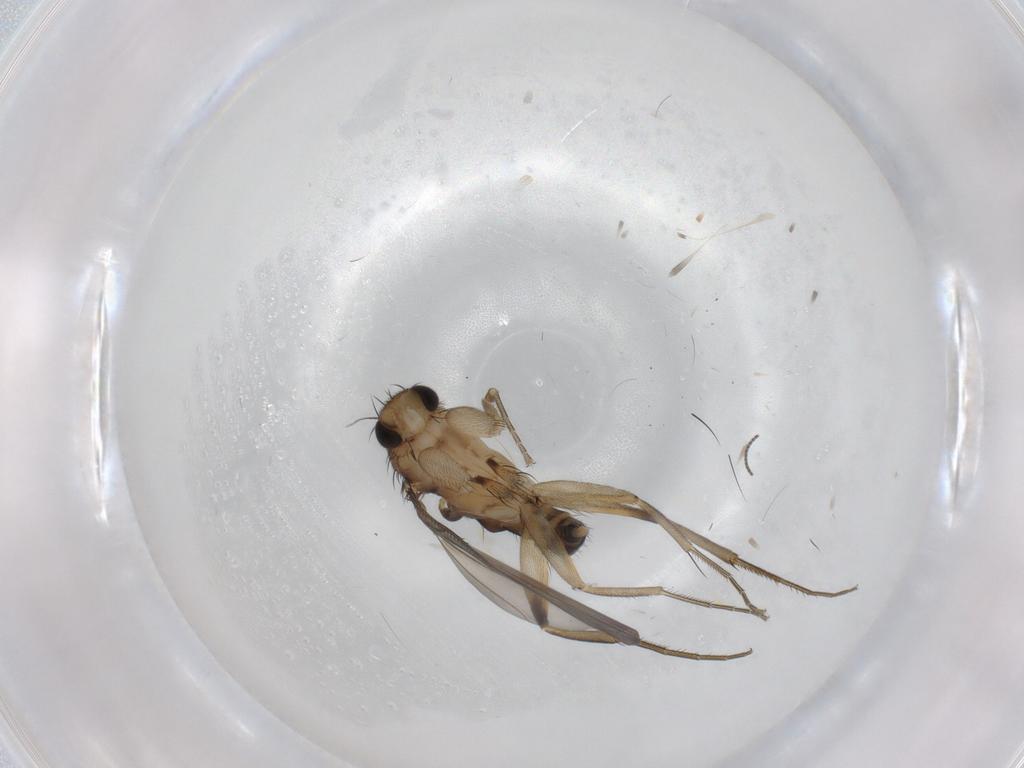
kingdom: Animalia
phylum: Arthropoda
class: Insecta
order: Diptera
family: Phoridae
